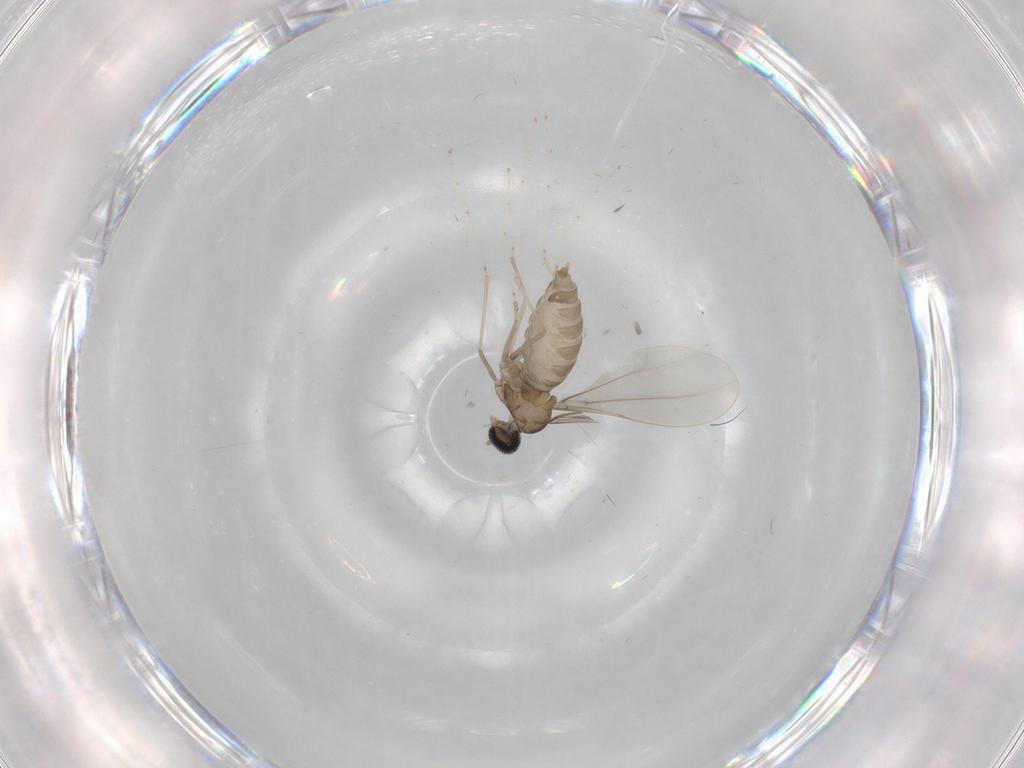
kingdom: Animalia
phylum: Arthropoda
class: Insecta
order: Diptera
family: Cecidomyiidae
